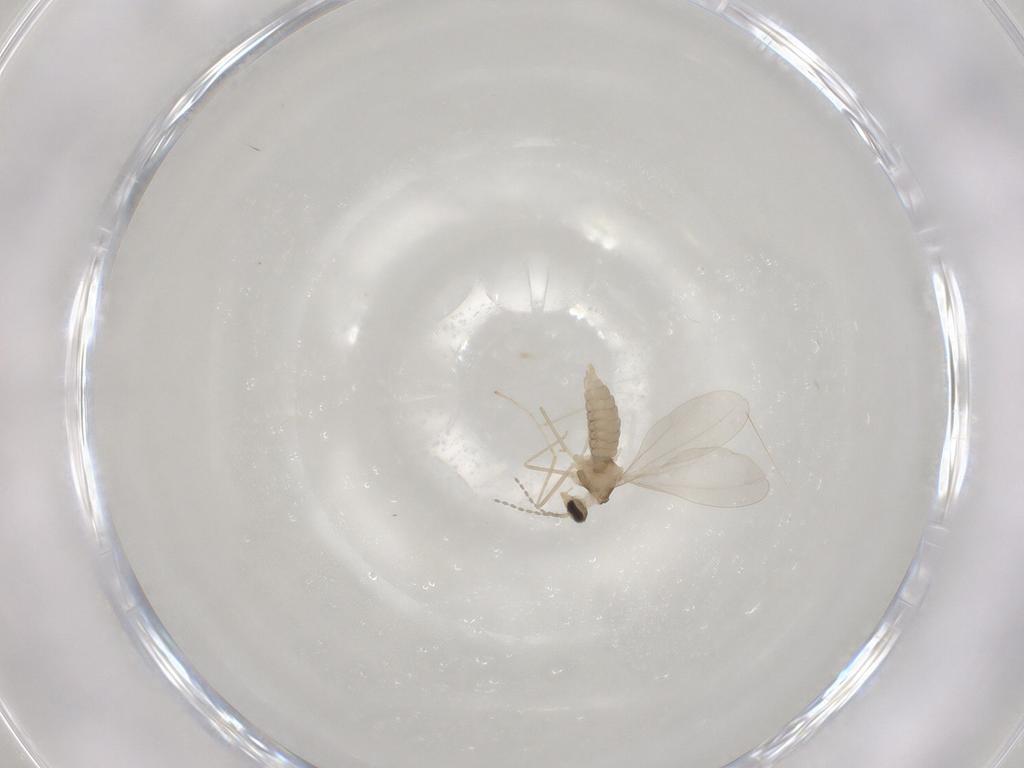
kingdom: Animalia
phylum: Arthropoda
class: Insecta
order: Diptera
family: Cecidomyiidae
